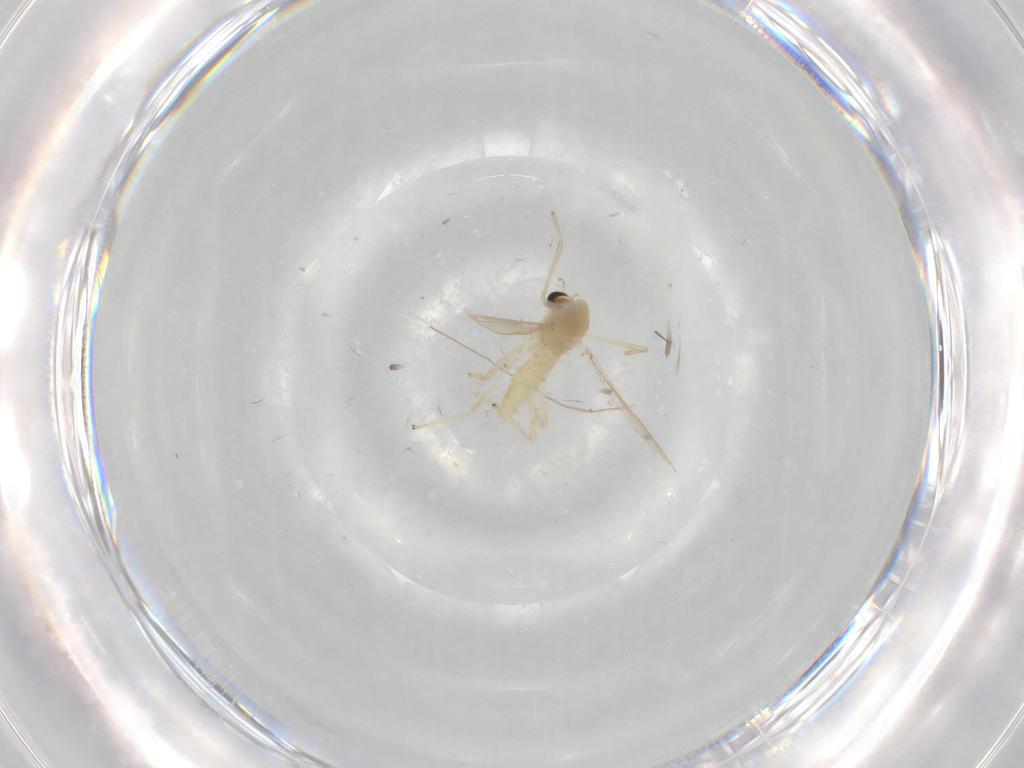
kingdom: Animalia
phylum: Arthropoda
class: Insecta
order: Diptera
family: Chironomidae
